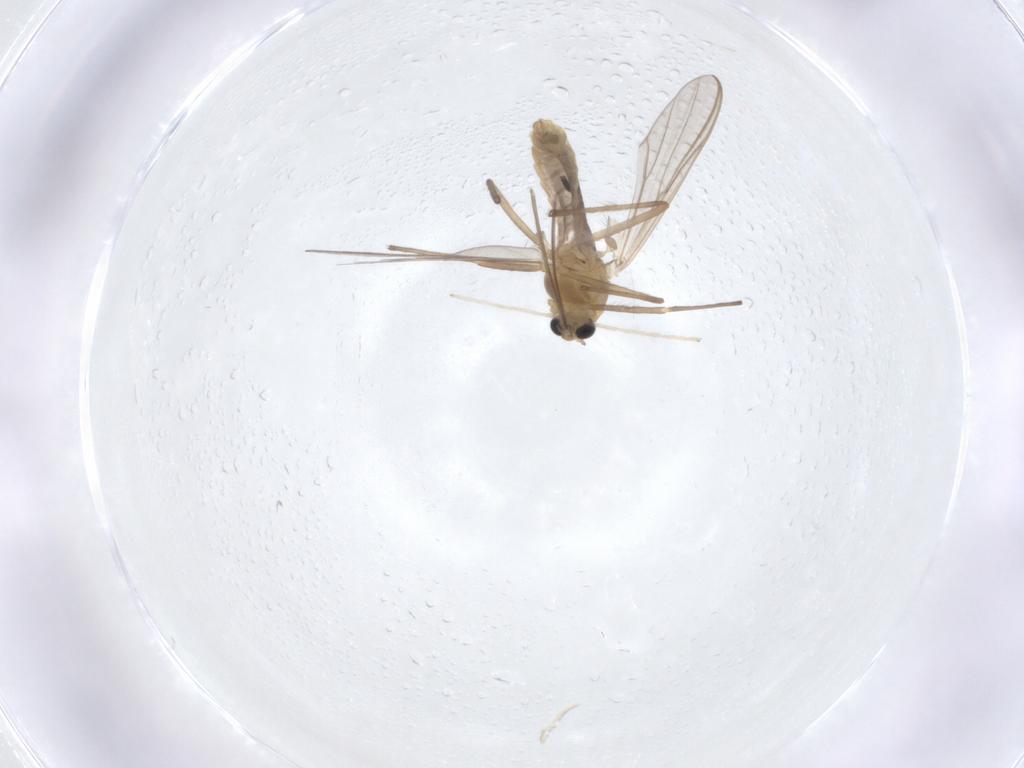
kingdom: Animalia
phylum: Arthropoda
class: Insecta
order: Diptera
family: Chironomidae
